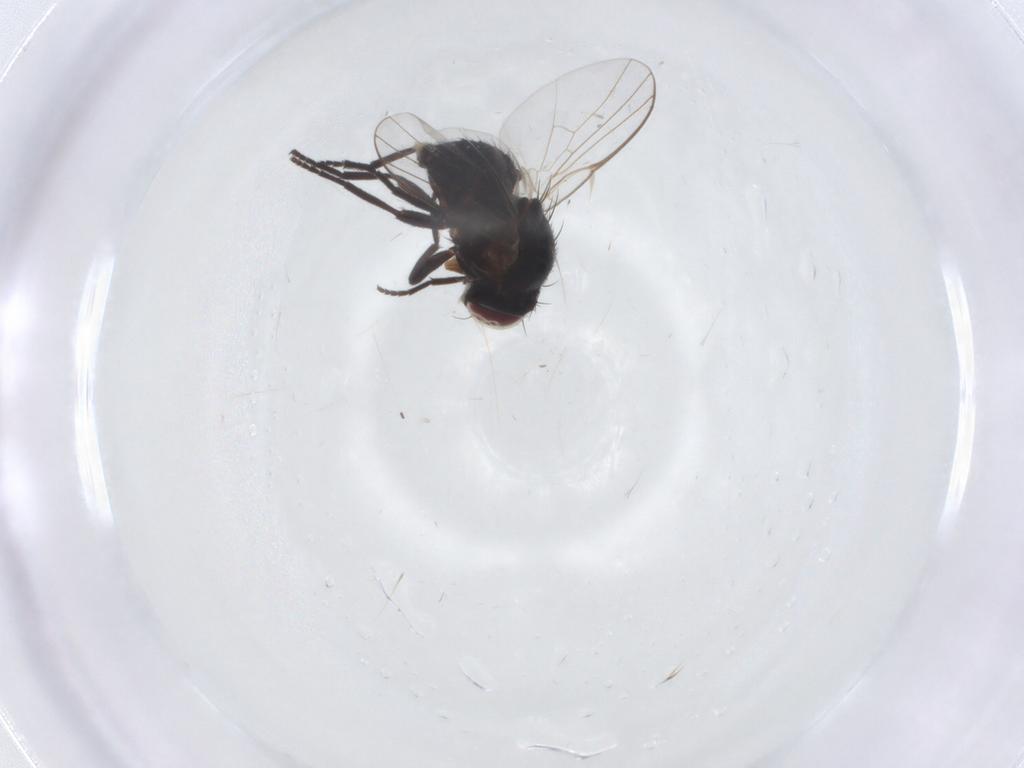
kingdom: Animalia
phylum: Arthropoda
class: Insecta
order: Diptera
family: Agromyzidae
